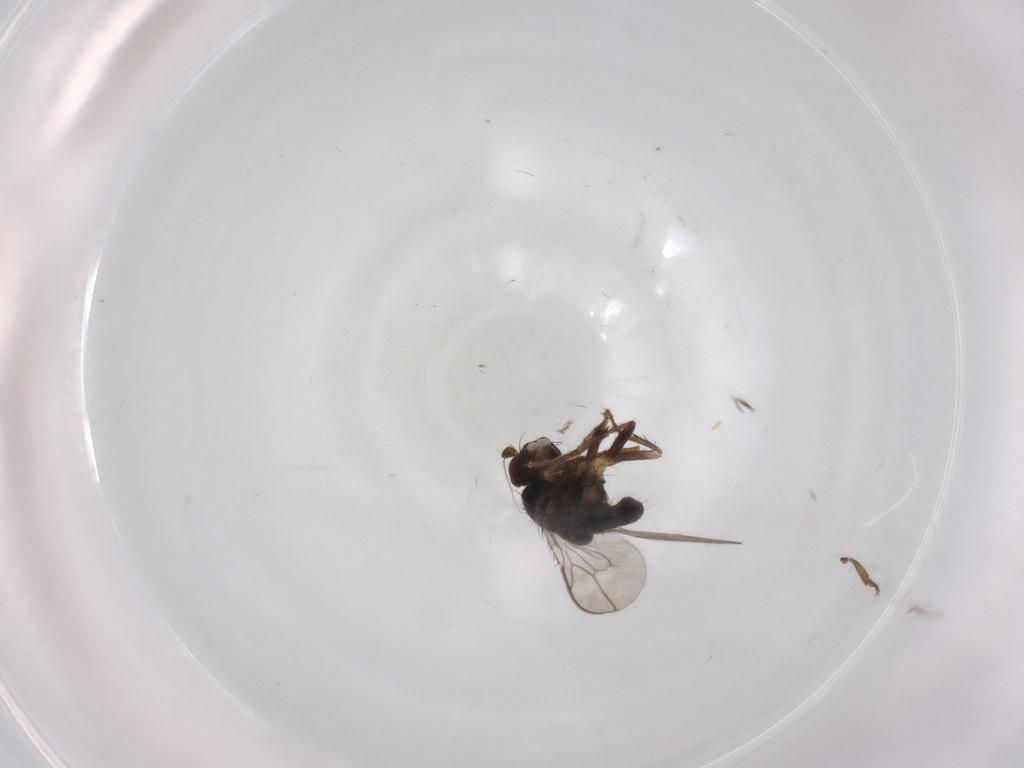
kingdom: Animalia
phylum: Arthropoda
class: Insecta
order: Diptera
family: Sphaeroceridae
